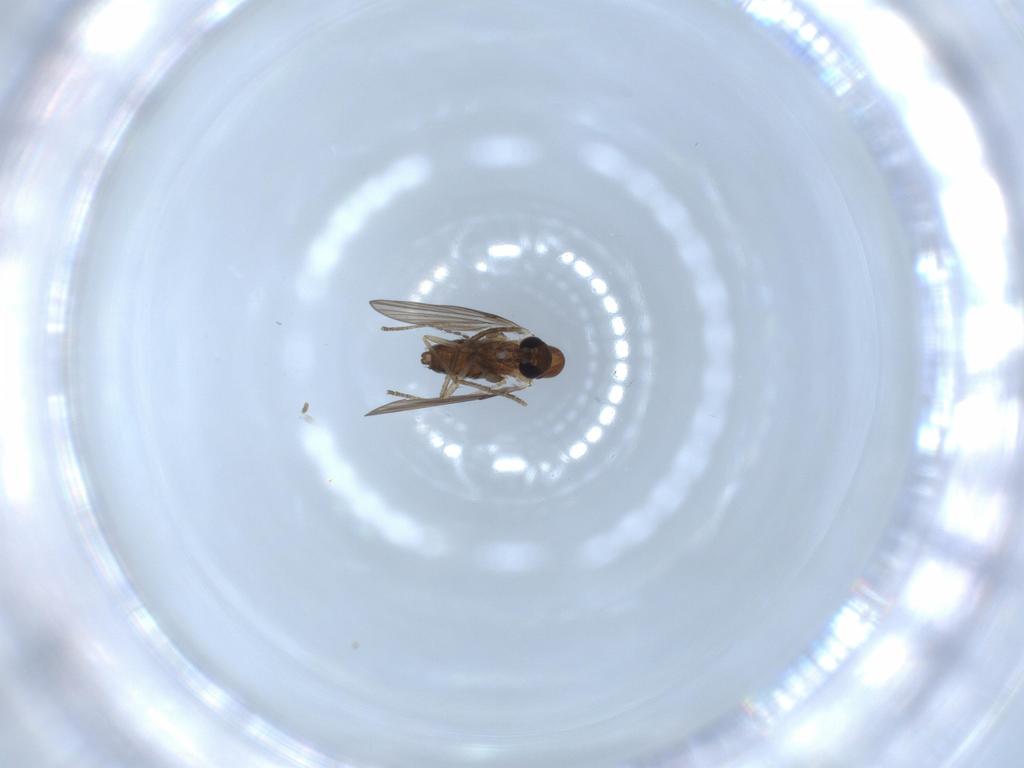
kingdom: Animalia
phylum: Arthropoda
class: Insecta
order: Diptera
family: Psychodidae
